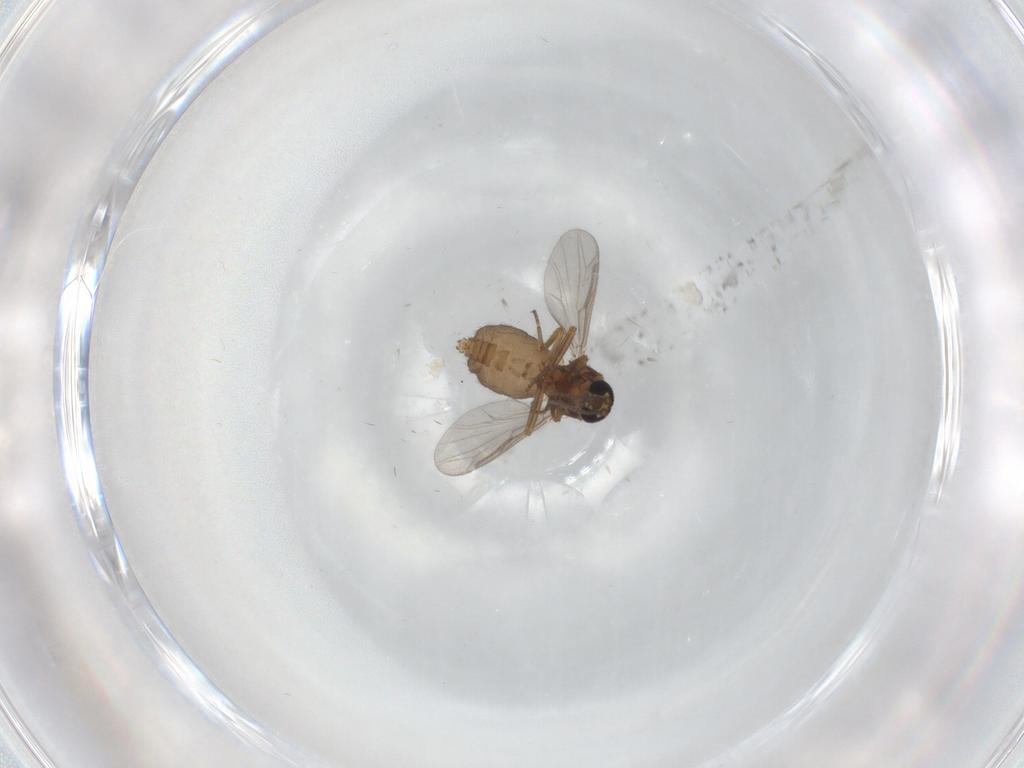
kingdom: Animalia
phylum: Arthropoda
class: Insecta
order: Diptera
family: Ceratopogonidae
